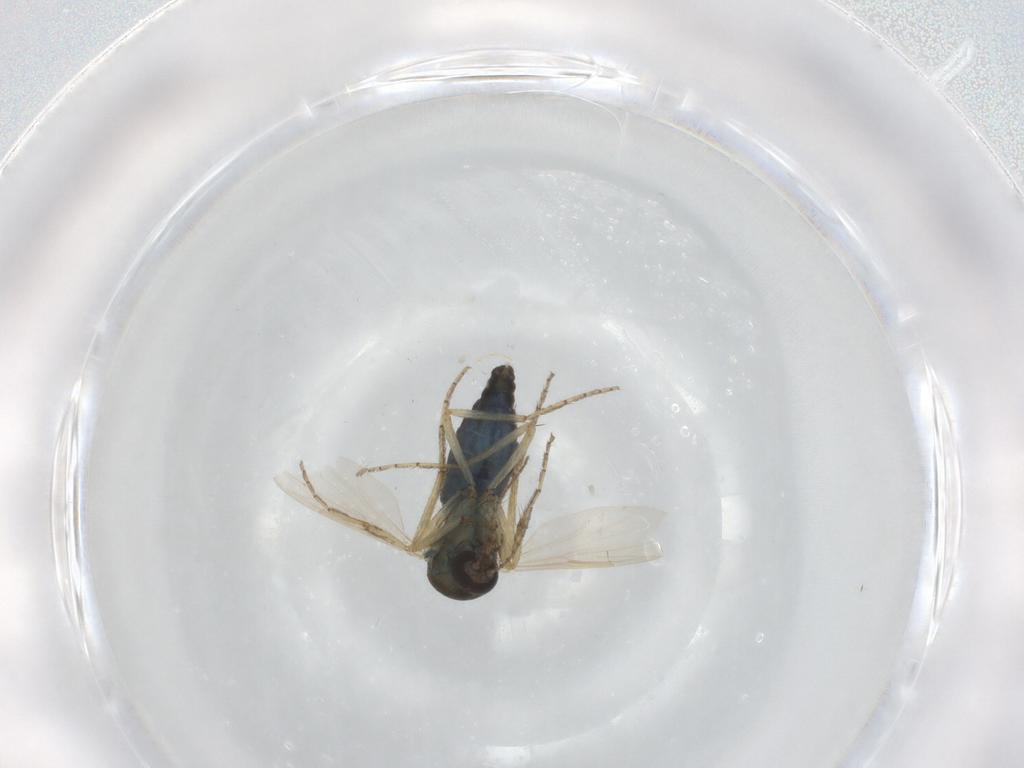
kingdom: Animalia
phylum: Arthropoda
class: Insecta
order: Diptera
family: Ceratopogonidae
